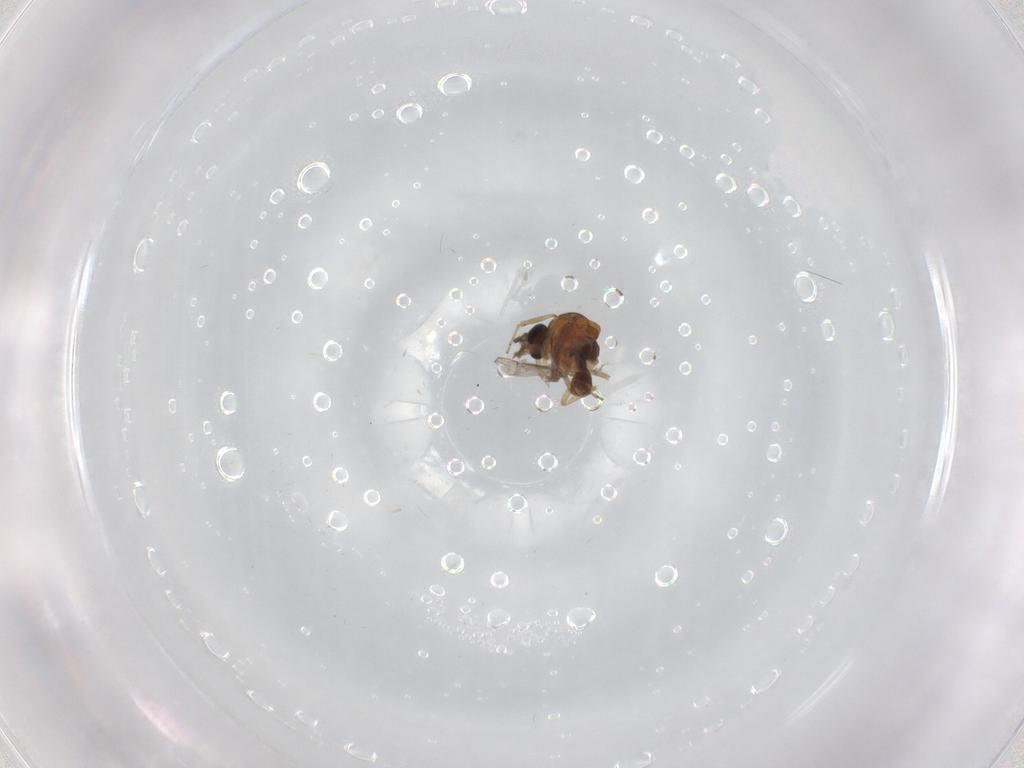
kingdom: Animalia
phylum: Arthropoda
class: Insecta
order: Diptera
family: Ceratopogonidae
